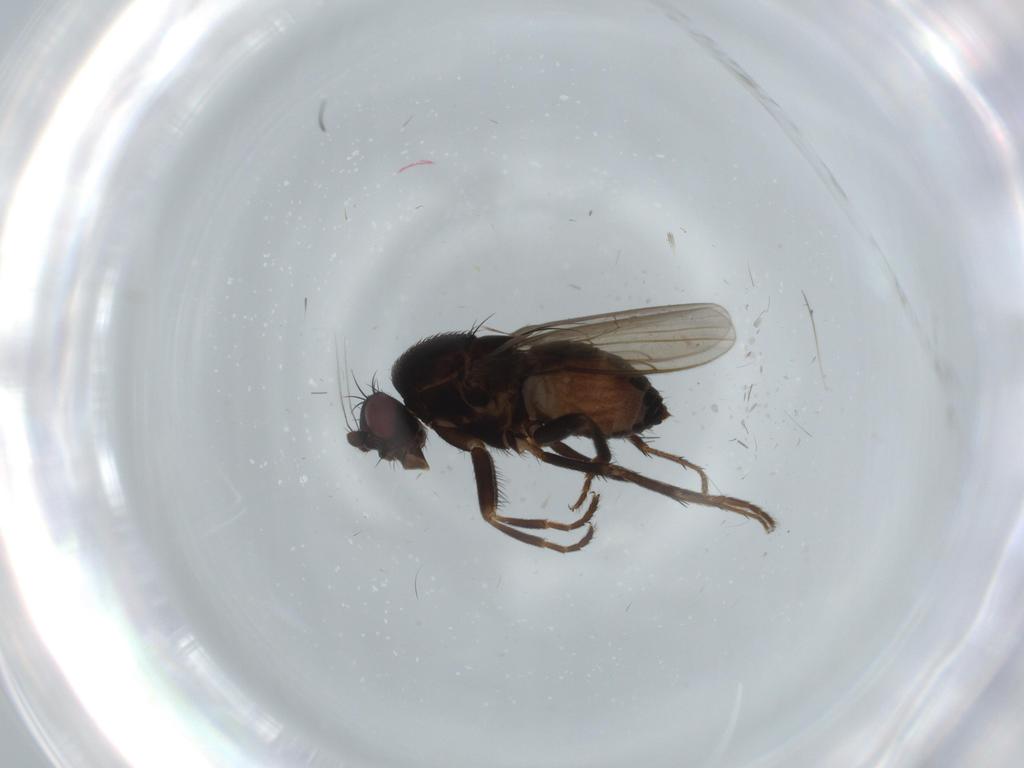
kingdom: Animalia
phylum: Arthropoda
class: Insecta
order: Diptera
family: Sphaeroceridae
